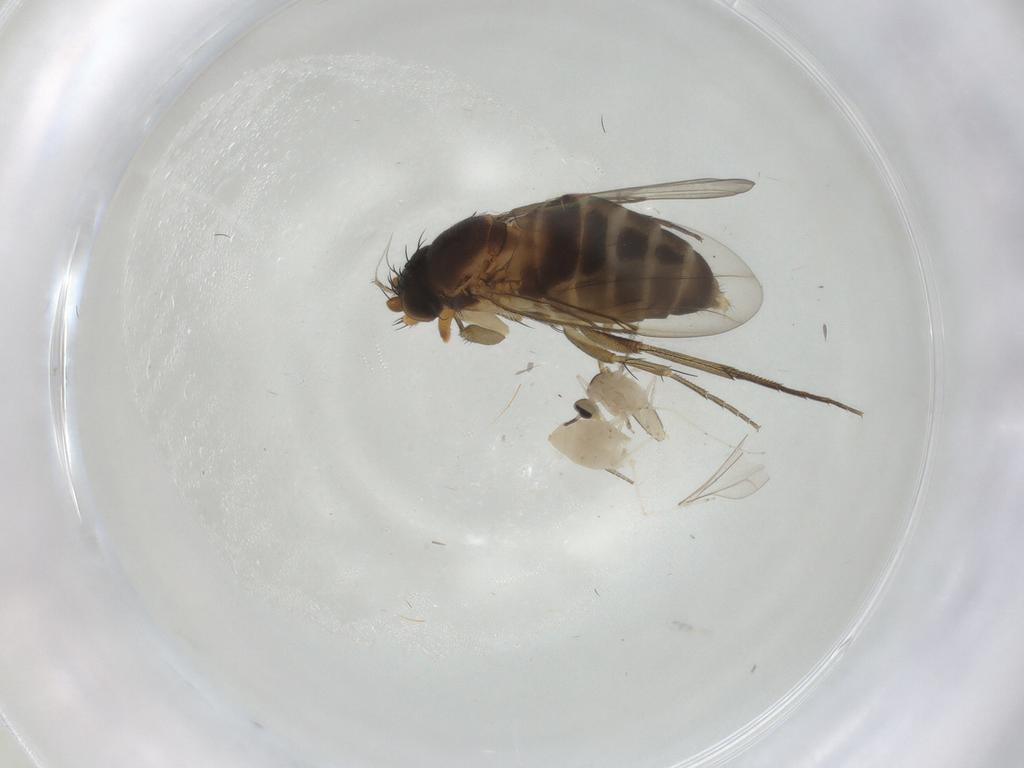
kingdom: Animalia
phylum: Arthropoda
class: Insecta
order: Diptera
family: Phoridae
